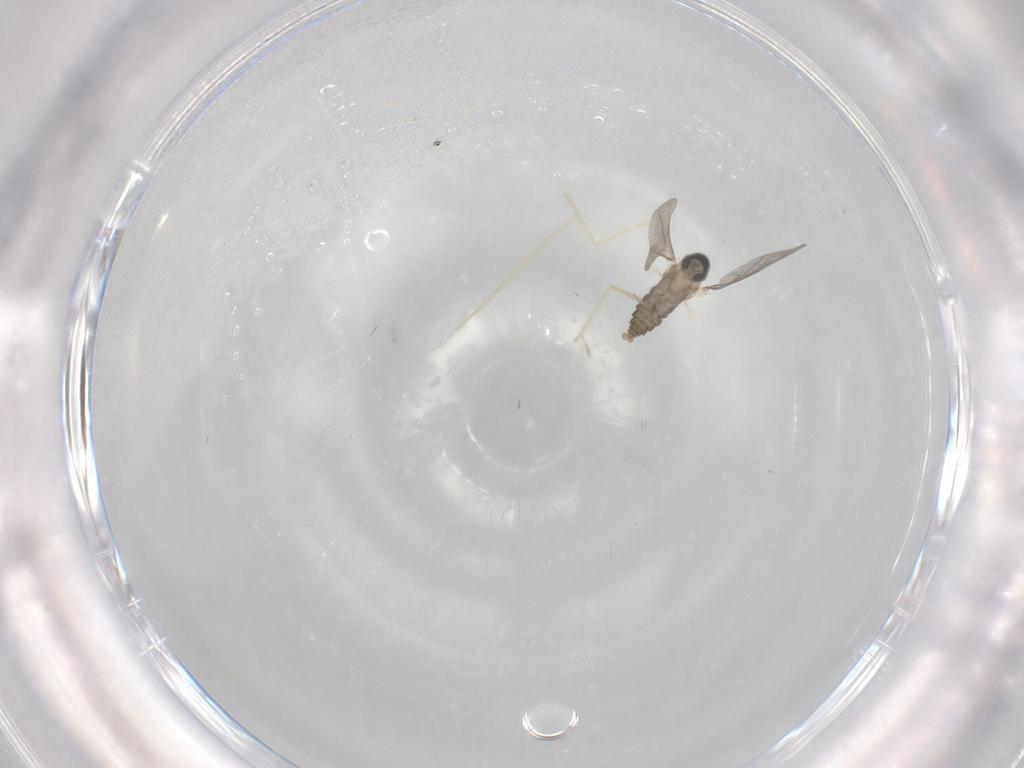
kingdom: Animalia
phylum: Arthropoda
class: Insecta
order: Diptera
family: Cecidomyiidae
